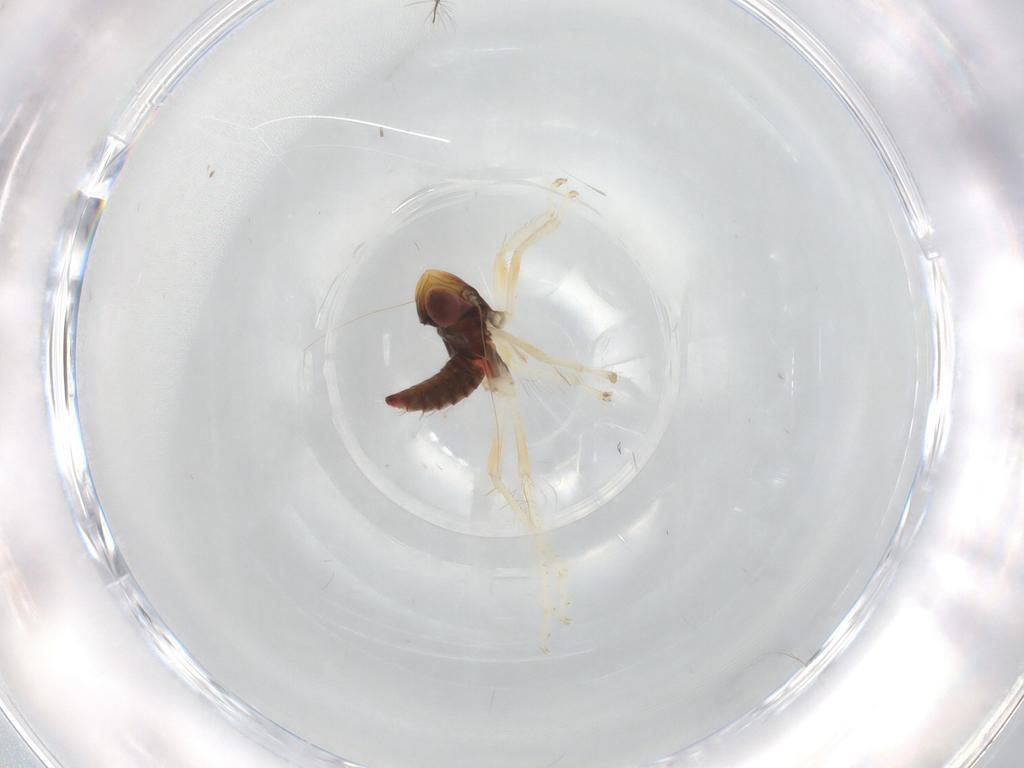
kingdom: Animalia
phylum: Arthropoda
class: Insecta
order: Hemiptera
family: Cicadellidae
